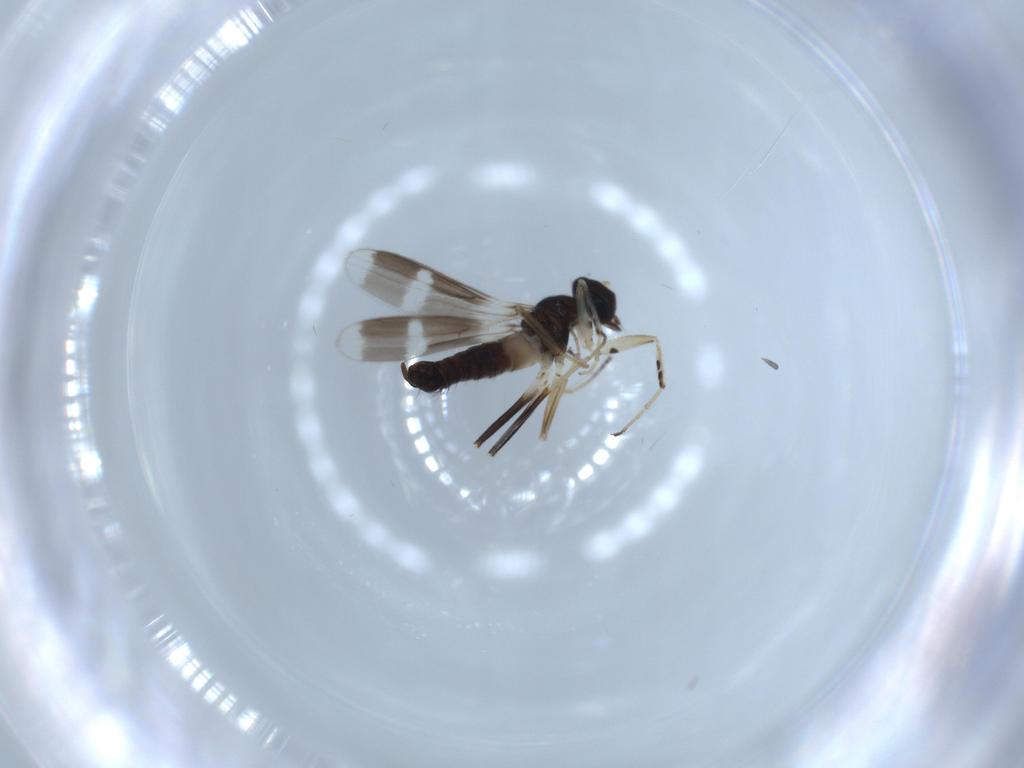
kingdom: Animalia
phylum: Arthropoda
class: Insecta
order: Diptera
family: Hybotidae
